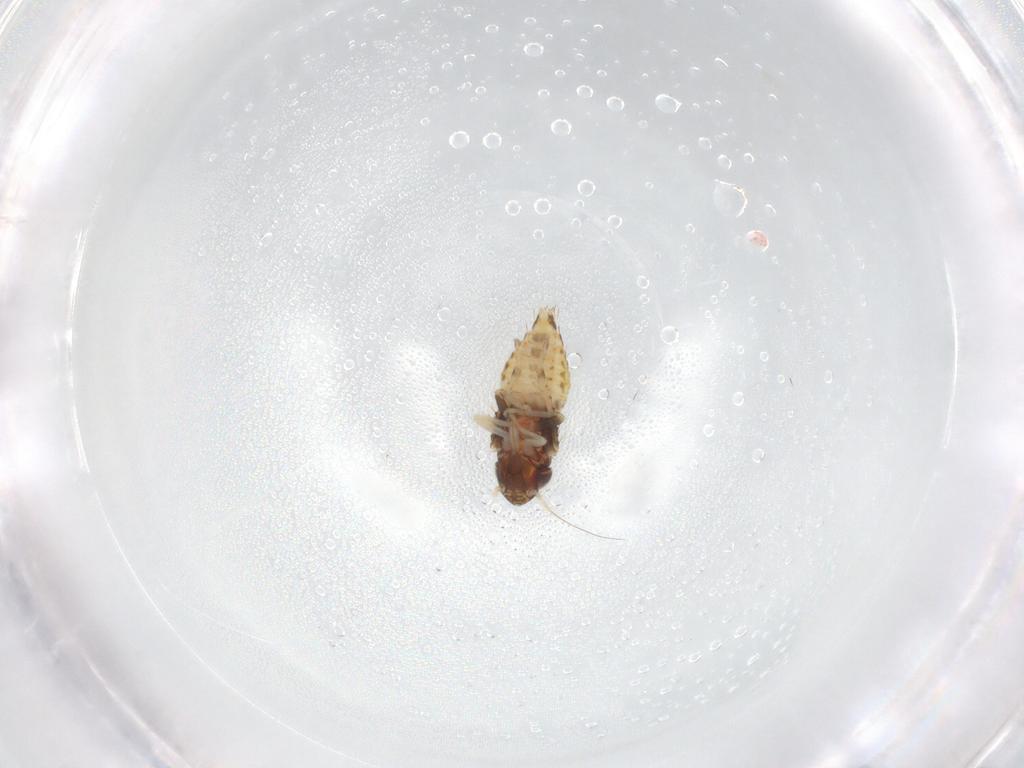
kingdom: Animalia
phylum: Arthropoda
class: Insecta
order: Hemiptera
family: Cicadellidae
